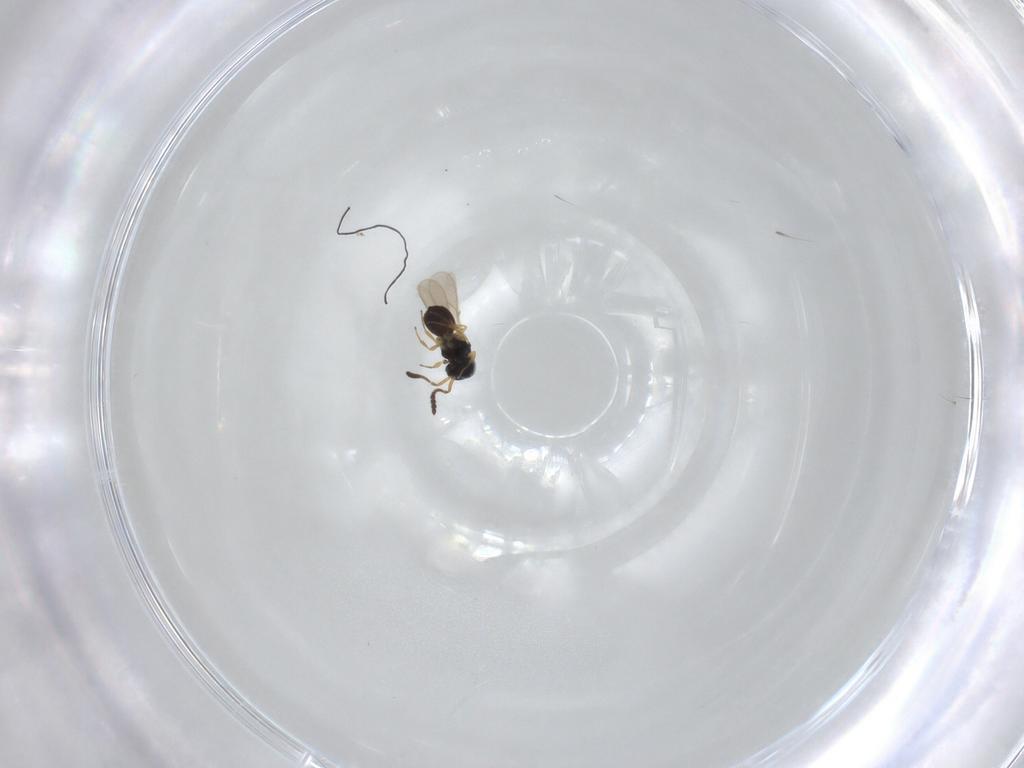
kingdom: Animalia
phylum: Arthropoda
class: Insecta
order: Hymenoptera
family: Scelionidae
